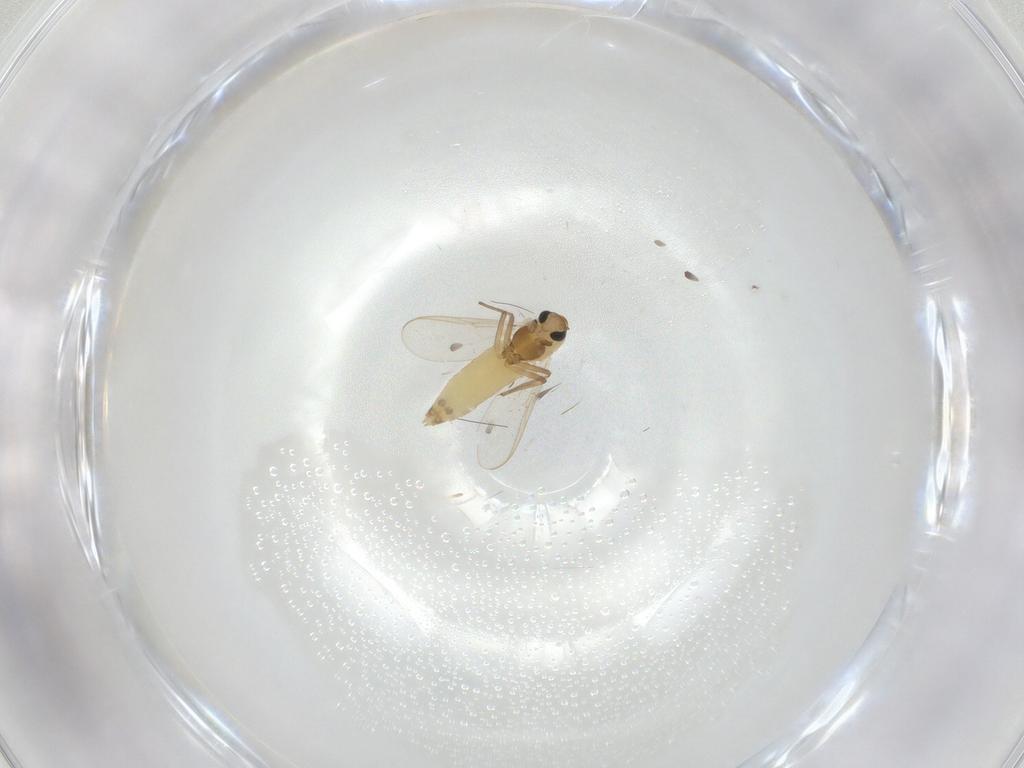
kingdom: Animalia
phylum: Arthropoda
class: Insecta
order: Diptera
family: Chironomidae
